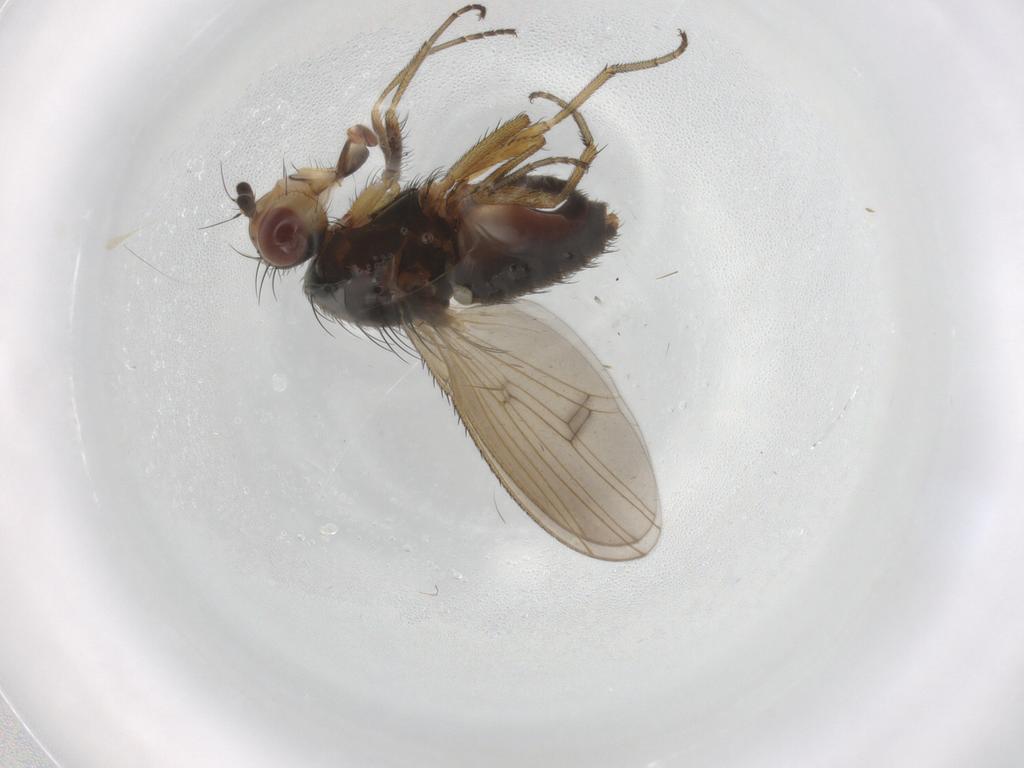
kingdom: Animalia
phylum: Arthropoda
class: Insecta
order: Diptera
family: Heleomyzidae
